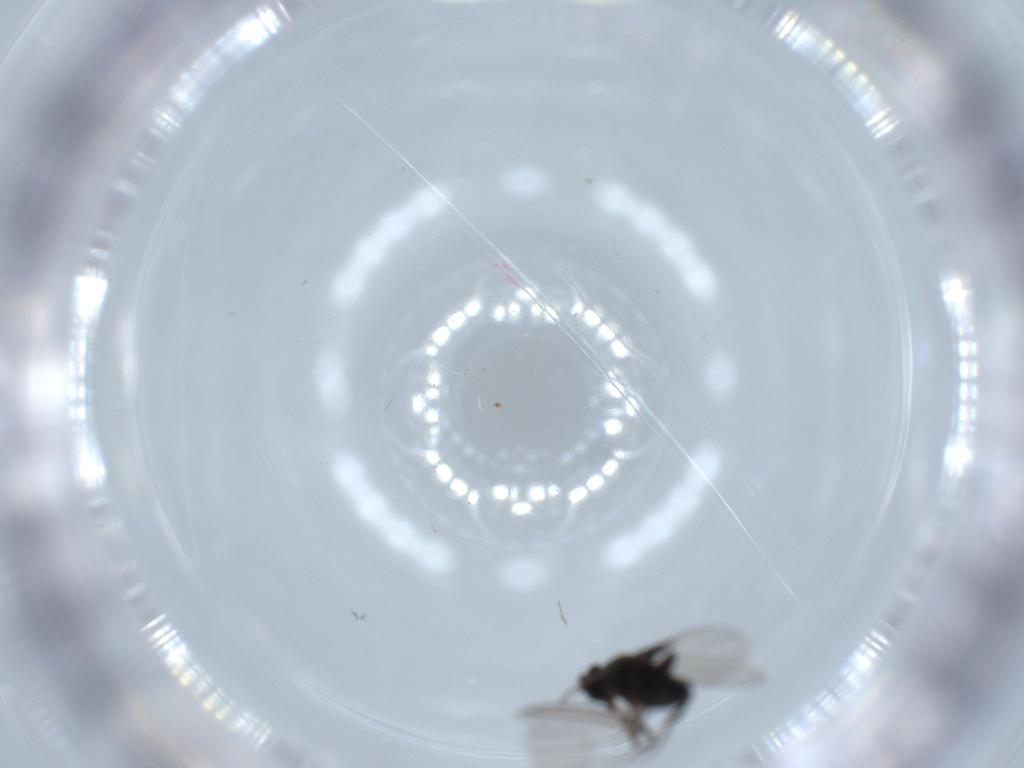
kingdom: Animalia
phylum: Arthropoda
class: Insecta
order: Diptera
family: Phoridae
